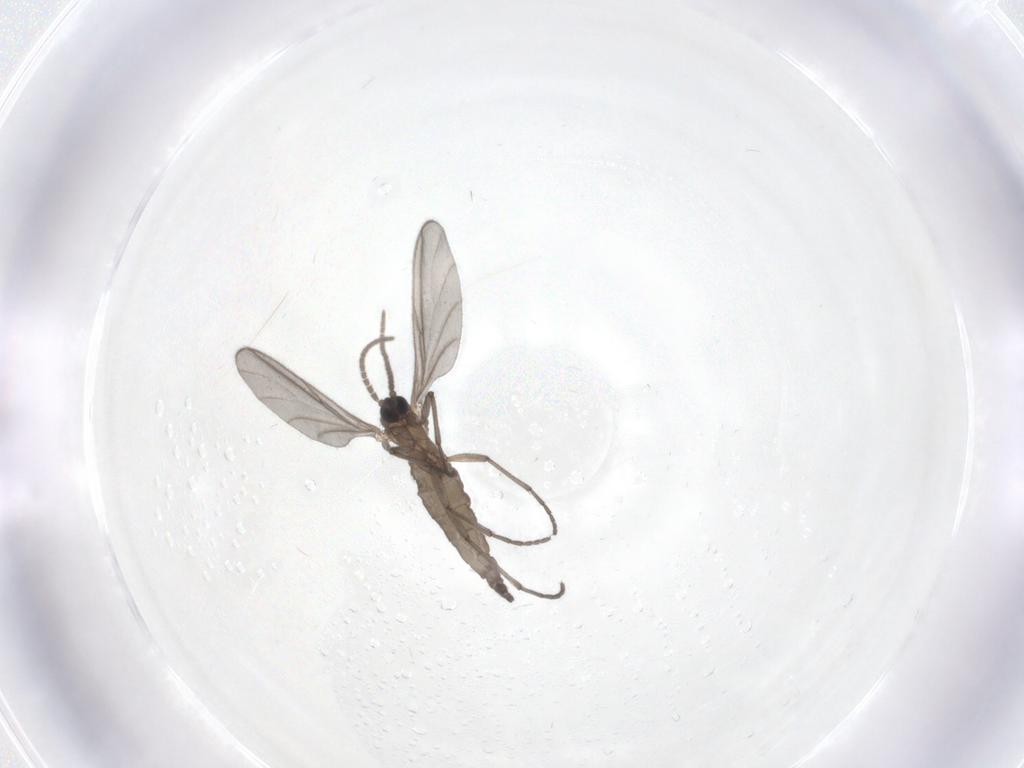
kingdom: Animalia
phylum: Arthropoda
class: Insecta
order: Diptera
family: Sciaridae
